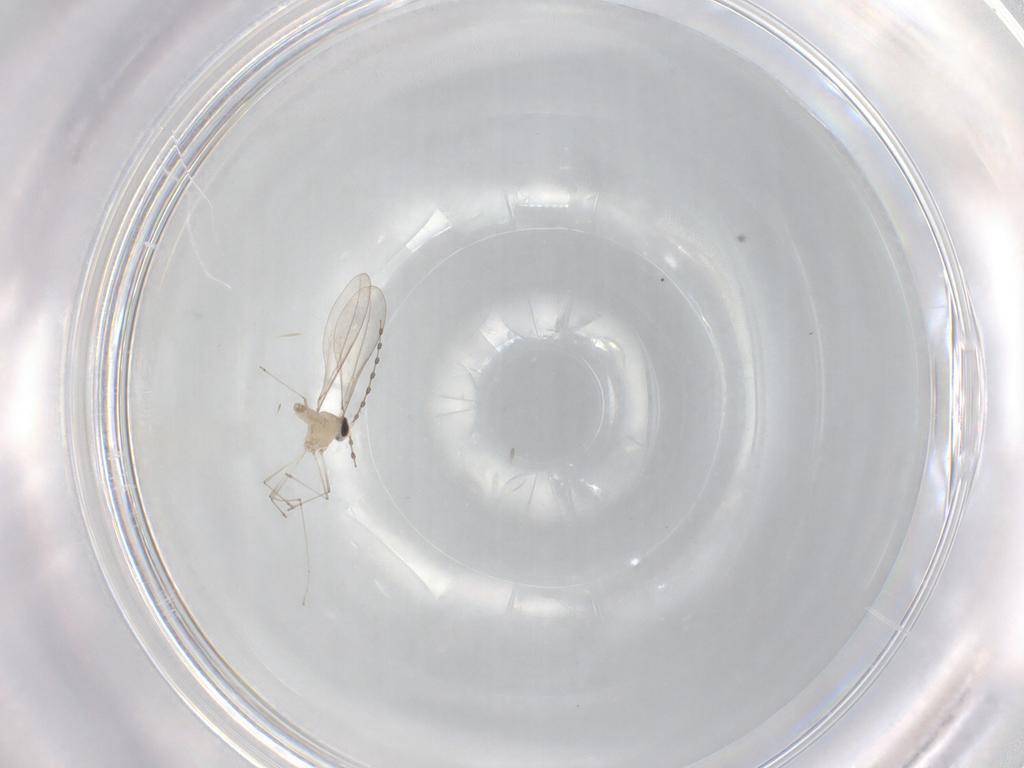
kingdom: Animalia
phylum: Arthropoda
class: Insecta
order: Diptera
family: Cecidomyiidae
